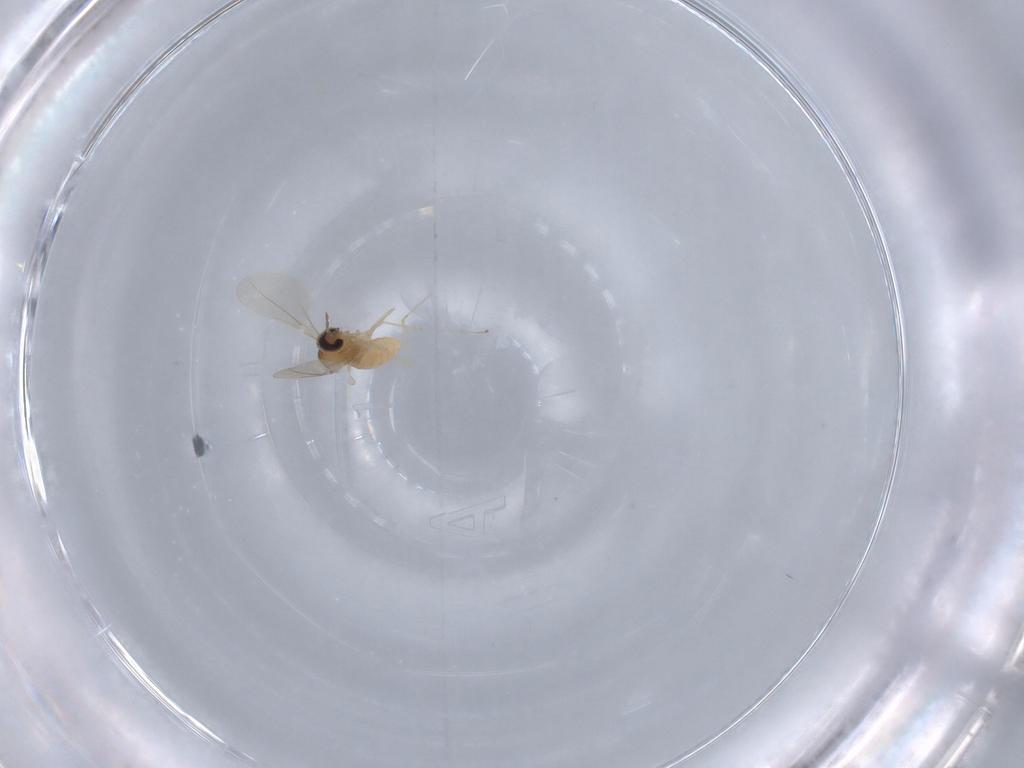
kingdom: Animalia
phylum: Arthropoda
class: Insecta
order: Diptera
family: Cecidomyiidae
